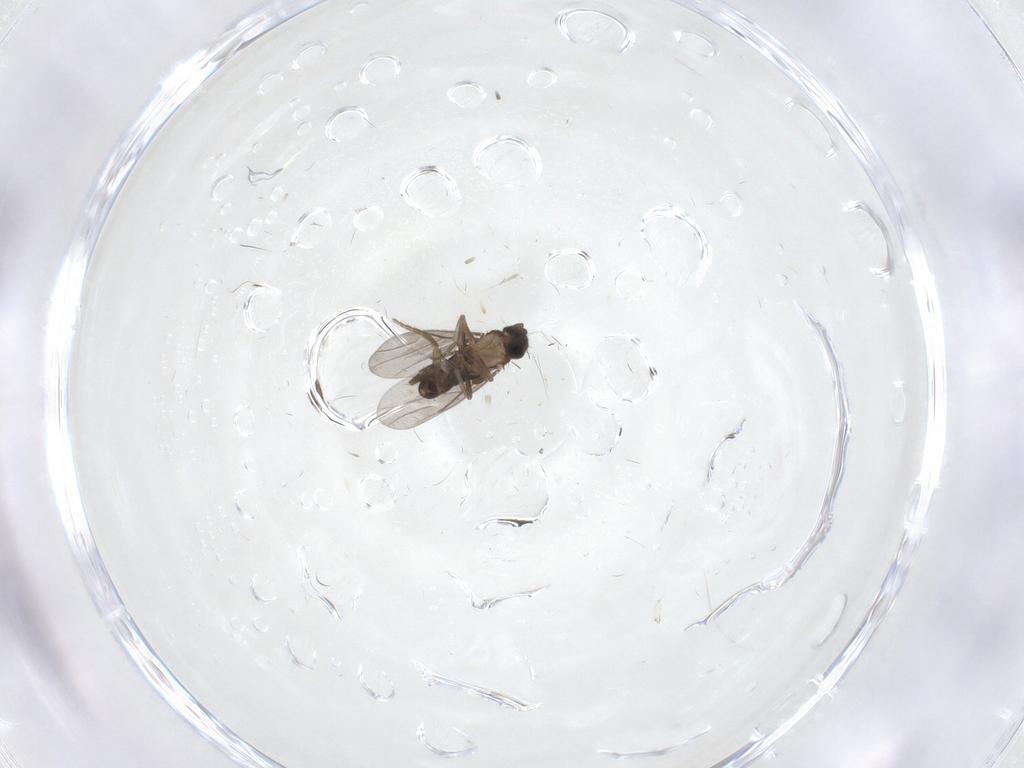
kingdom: Animalia
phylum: Arthropoda
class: Insecta
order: Diptera
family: Cecidomyiidae
